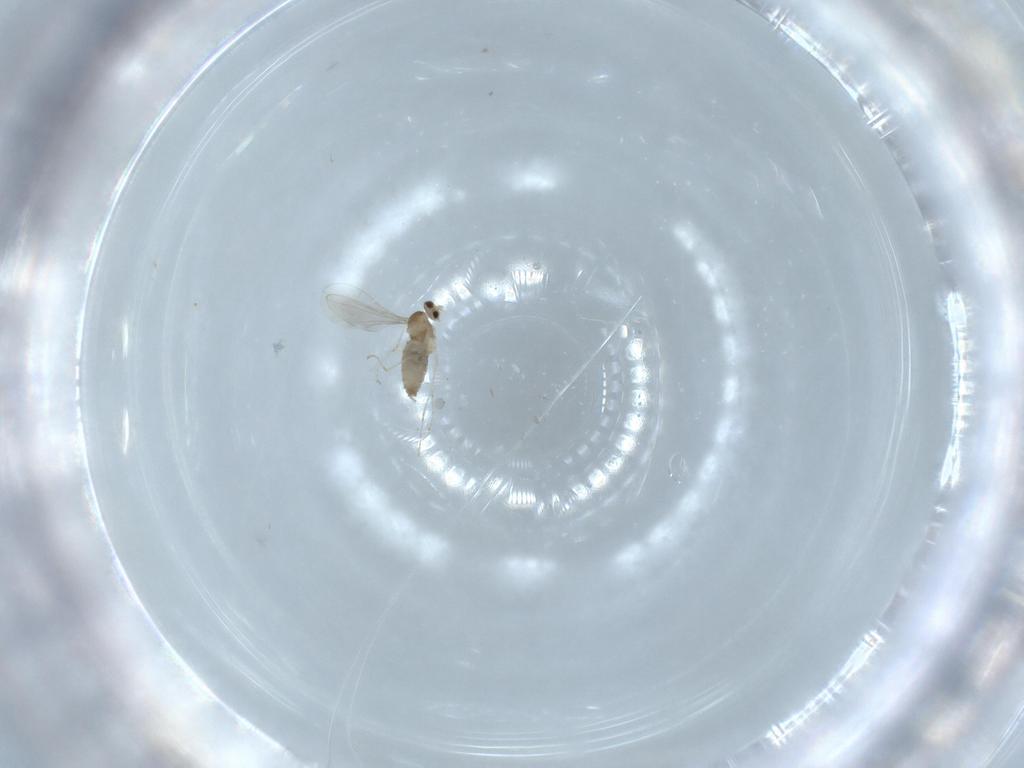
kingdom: Animalia
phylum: Arthropoda
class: Insecta
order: Diptera
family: Cecidomyiidae
